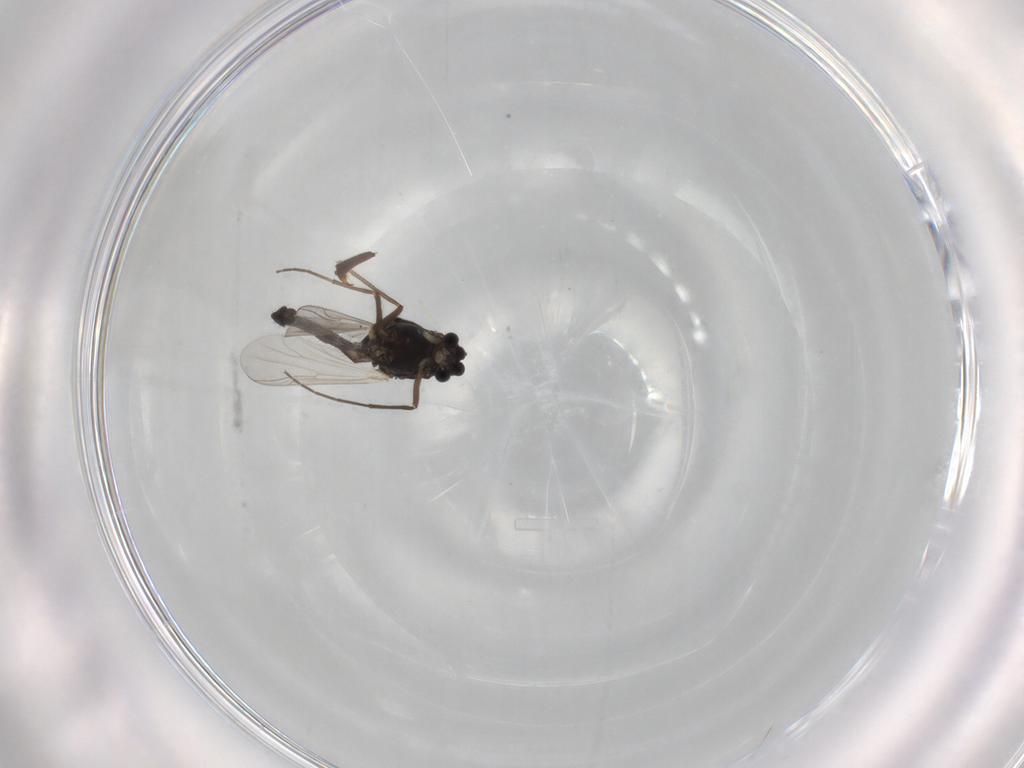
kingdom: Animalia
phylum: Arthropoda
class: Insecta
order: Diptera
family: Chironomidae
